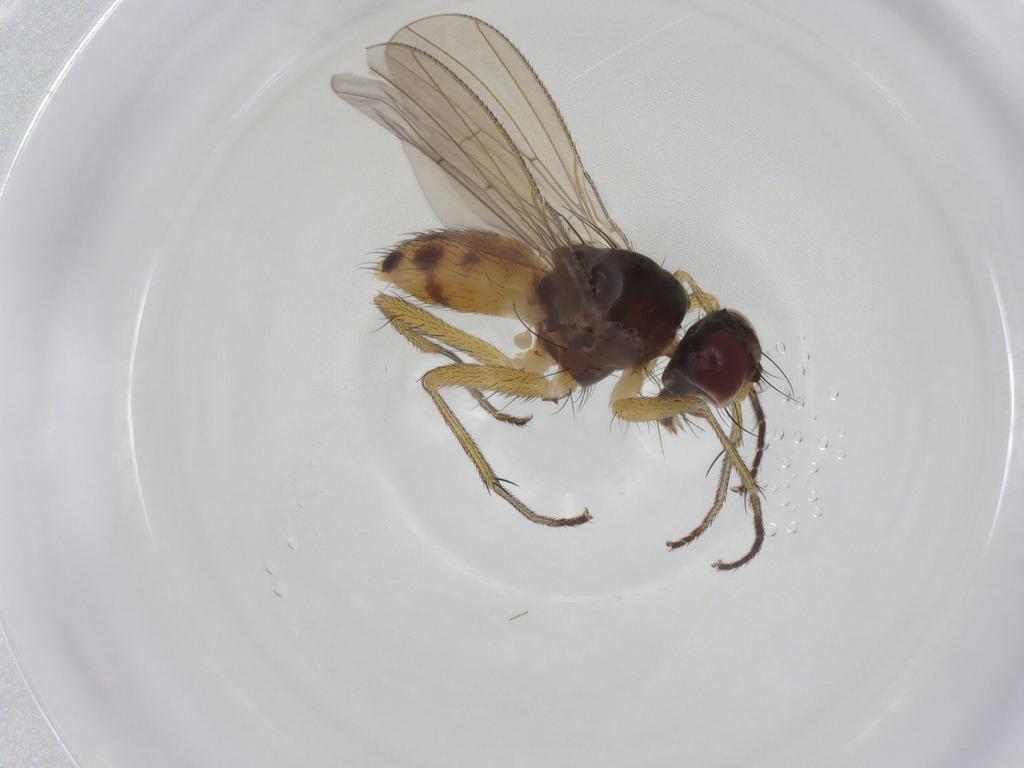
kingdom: Animalia
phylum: Arthropoda
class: Insecta
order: Diptera
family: Muscidae
